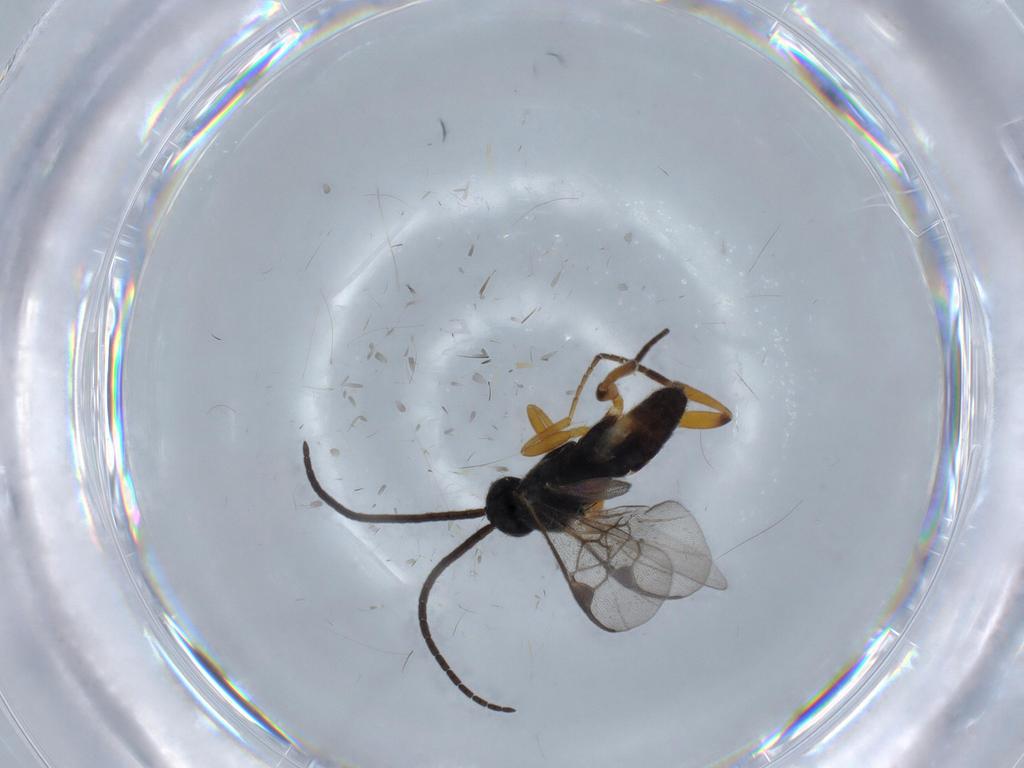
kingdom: Animalia
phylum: Arthropoda
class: Insecta
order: Hymenoptera
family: Braconidae
